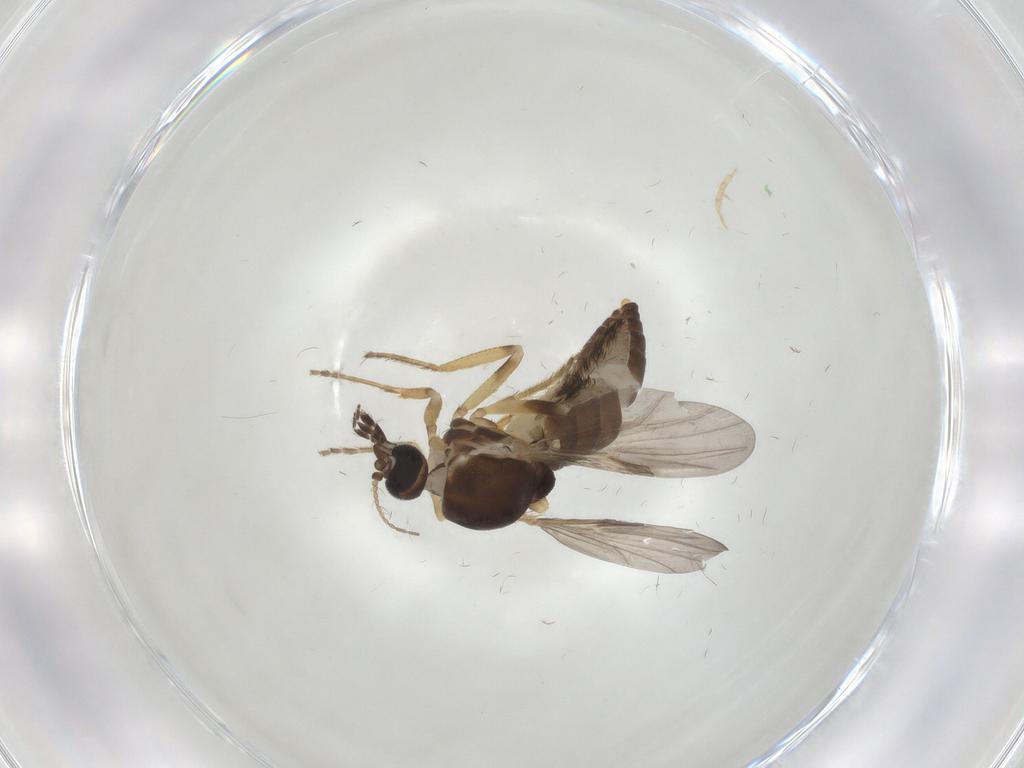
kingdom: Animalia
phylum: Arthropoda
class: Insecta
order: Diptera
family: Ceratopogonidae
